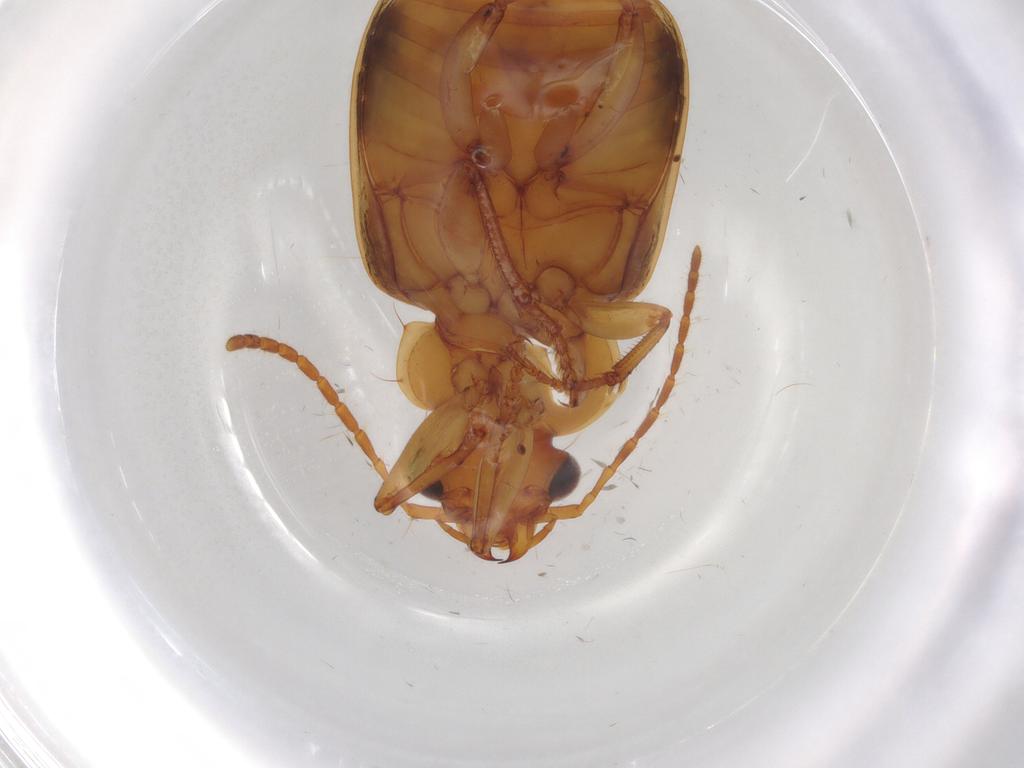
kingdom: Animalia
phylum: Arthropoda
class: Insecta
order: Coleoptera
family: Carabidae
